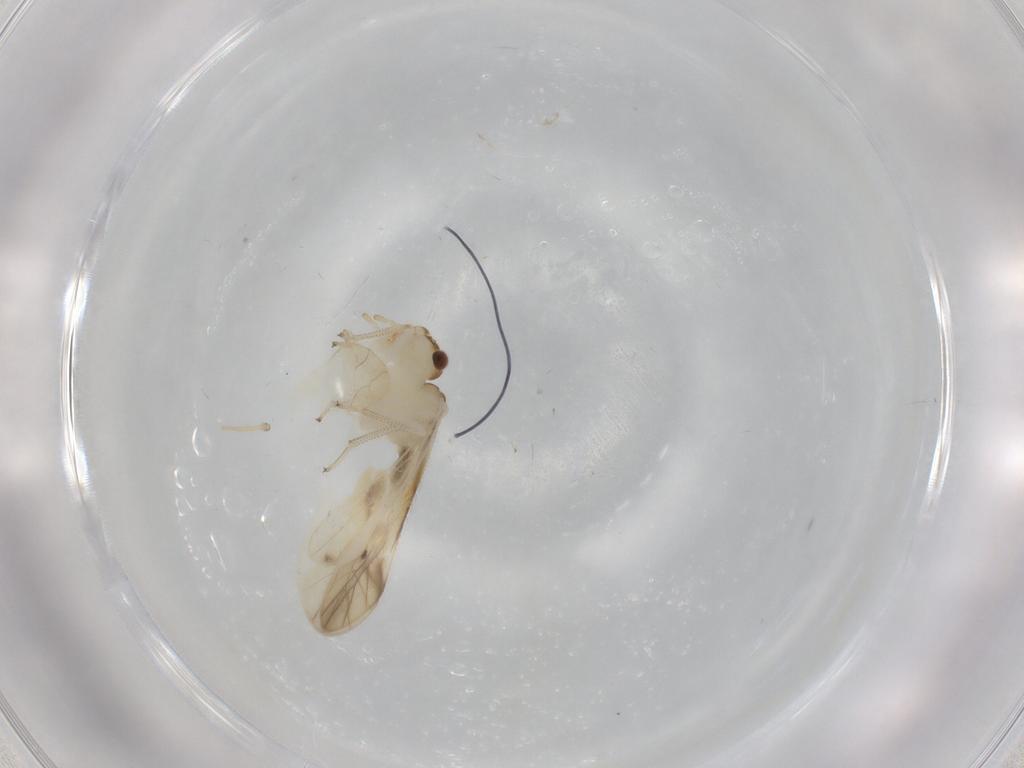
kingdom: Animalia
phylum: Arthropoda
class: Insecta
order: Psocodea
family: Caeciliusidae
